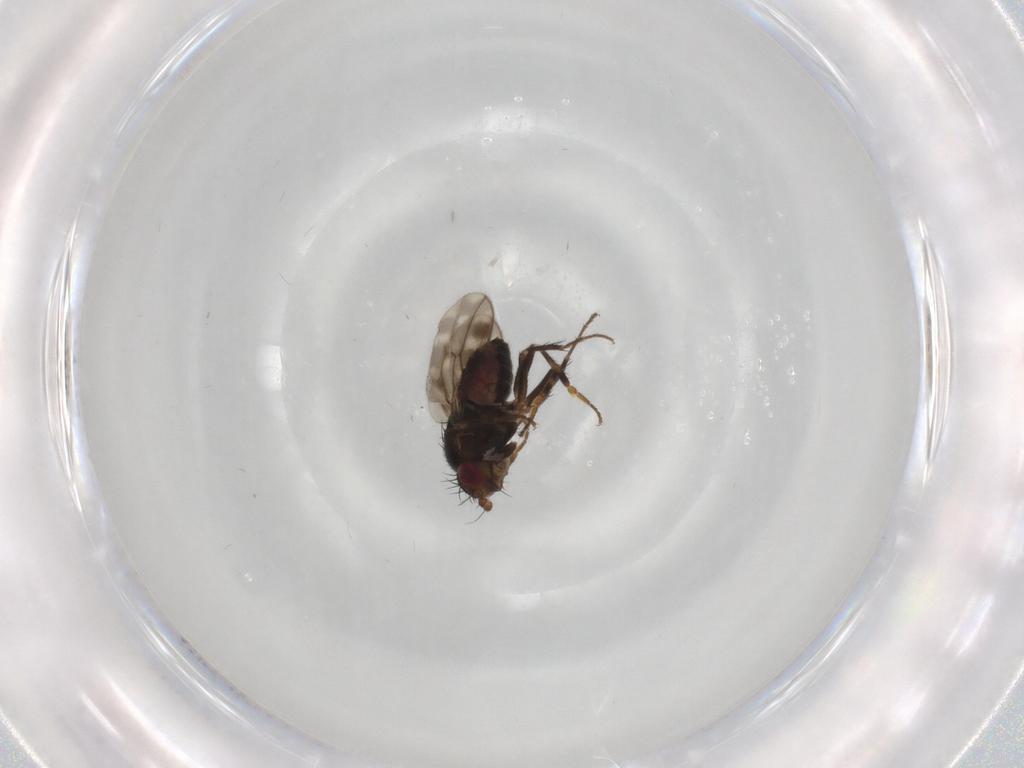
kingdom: Animalia
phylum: Arthropoda
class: Insecta
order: Diptera
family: Sphaeroceridae
